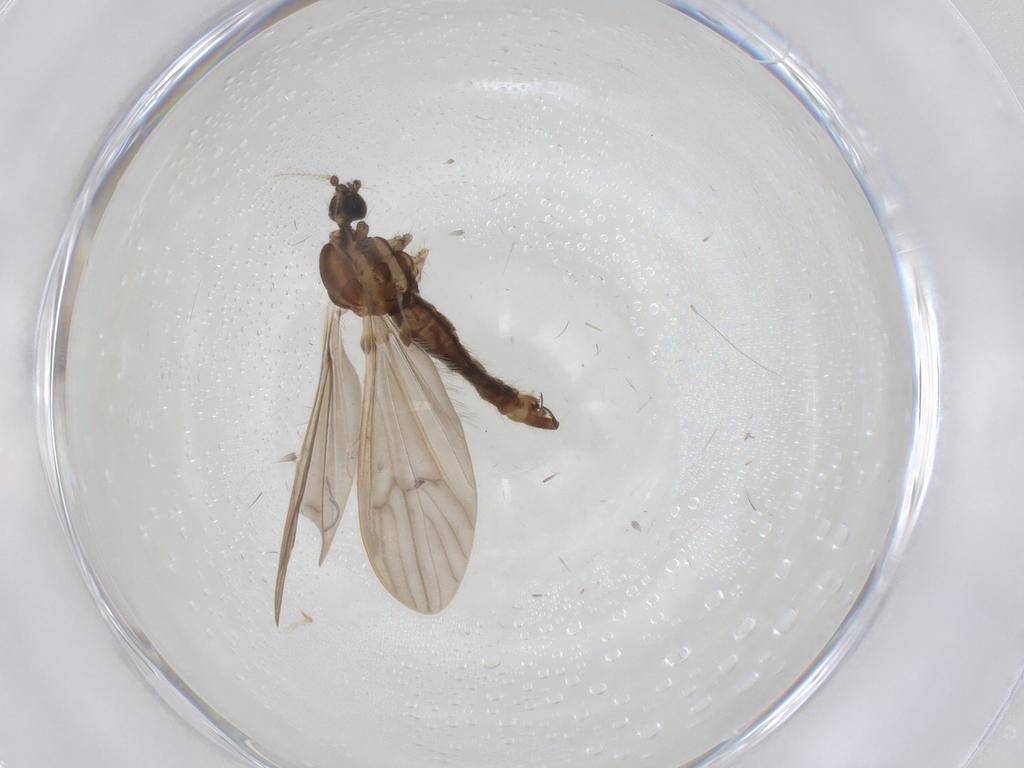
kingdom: Animalia
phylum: Arthropoda
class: Insecta
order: Diptera
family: Limoniidae
